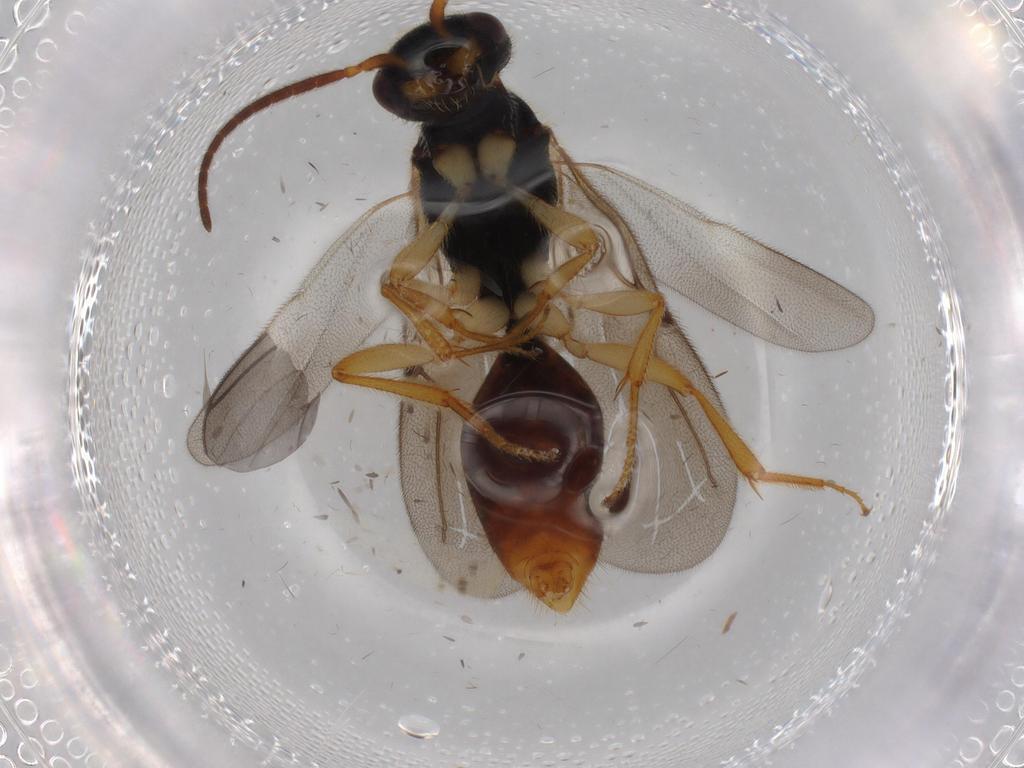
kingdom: Animalia
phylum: Arthropoda
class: Insecta
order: Hymenoptera
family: Bethylidae
